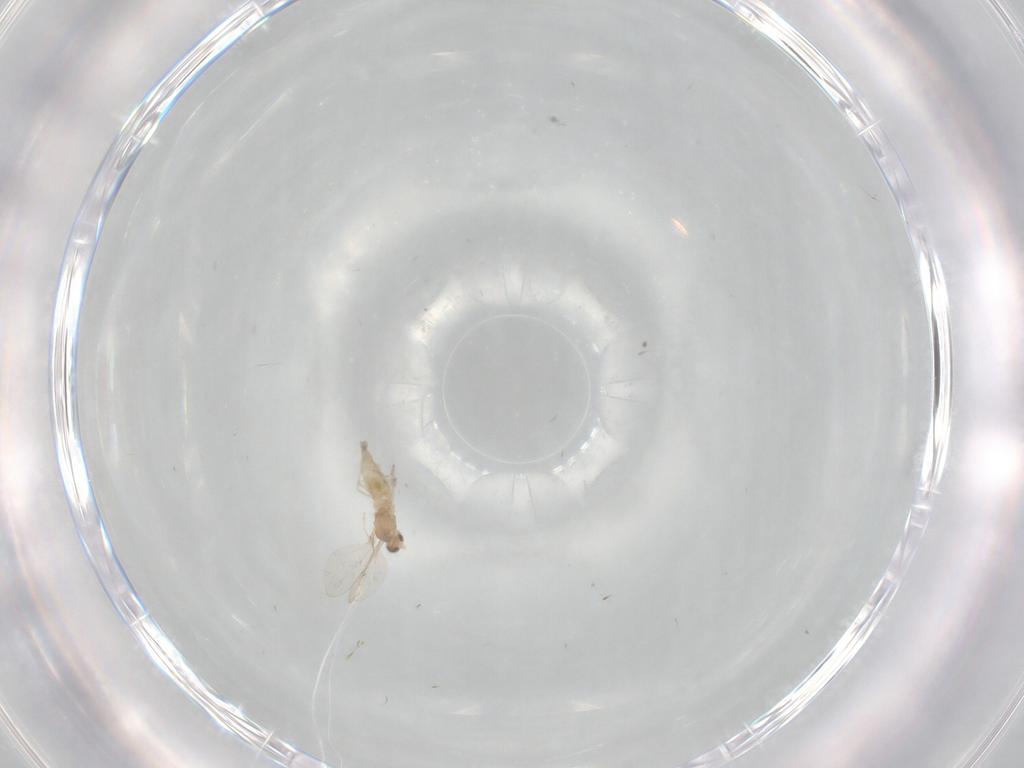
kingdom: Animalia
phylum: Arthropoda
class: Insecta
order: Diptera
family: Cecidomyiidae
